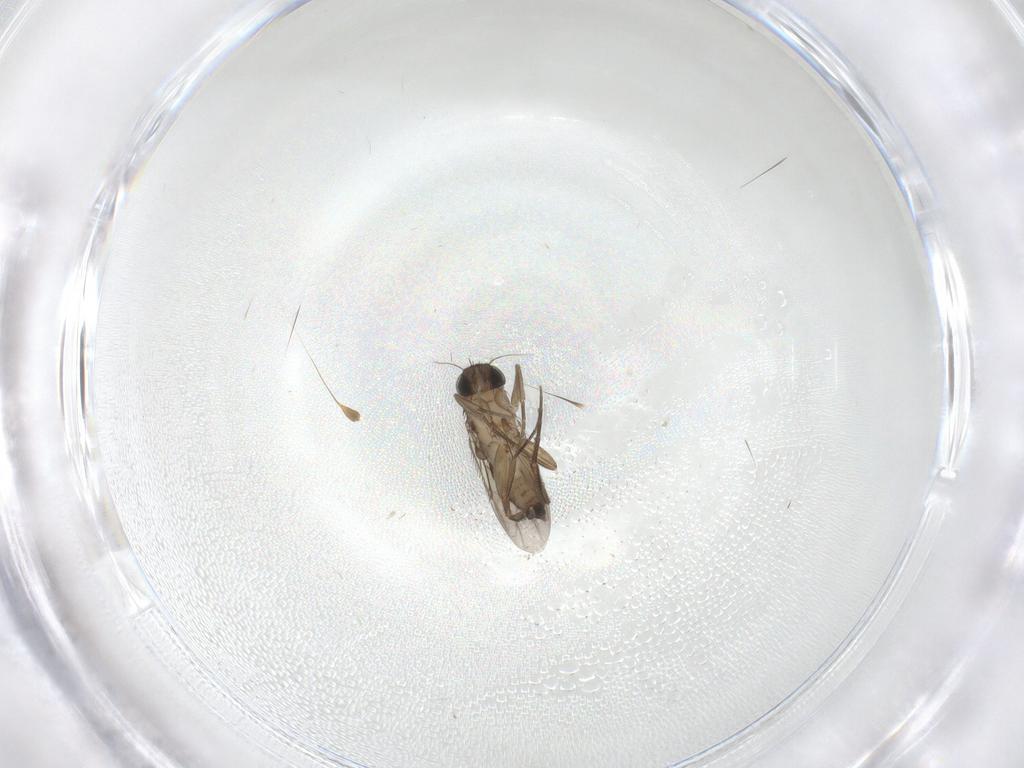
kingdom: Animalia
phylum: Arthropoda
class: Insecta
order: Diptera
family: Phoridae
